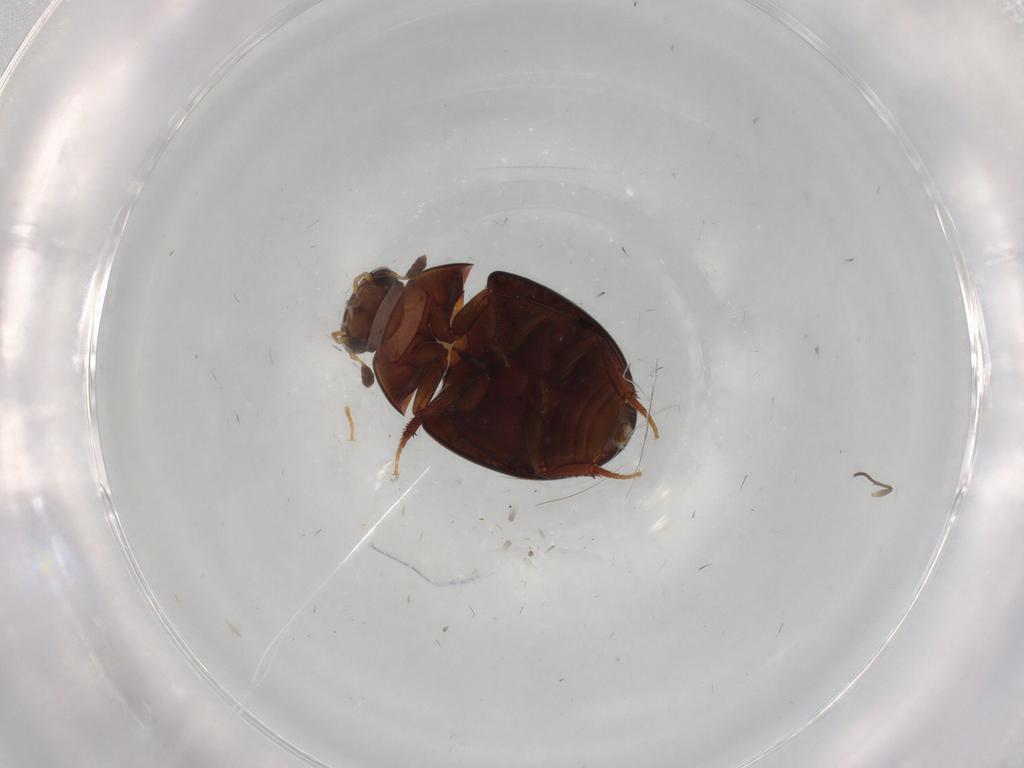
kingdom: Animalia
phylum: Arthropoda
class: Insecta
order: Coleoptera
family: Hydrophilidae
